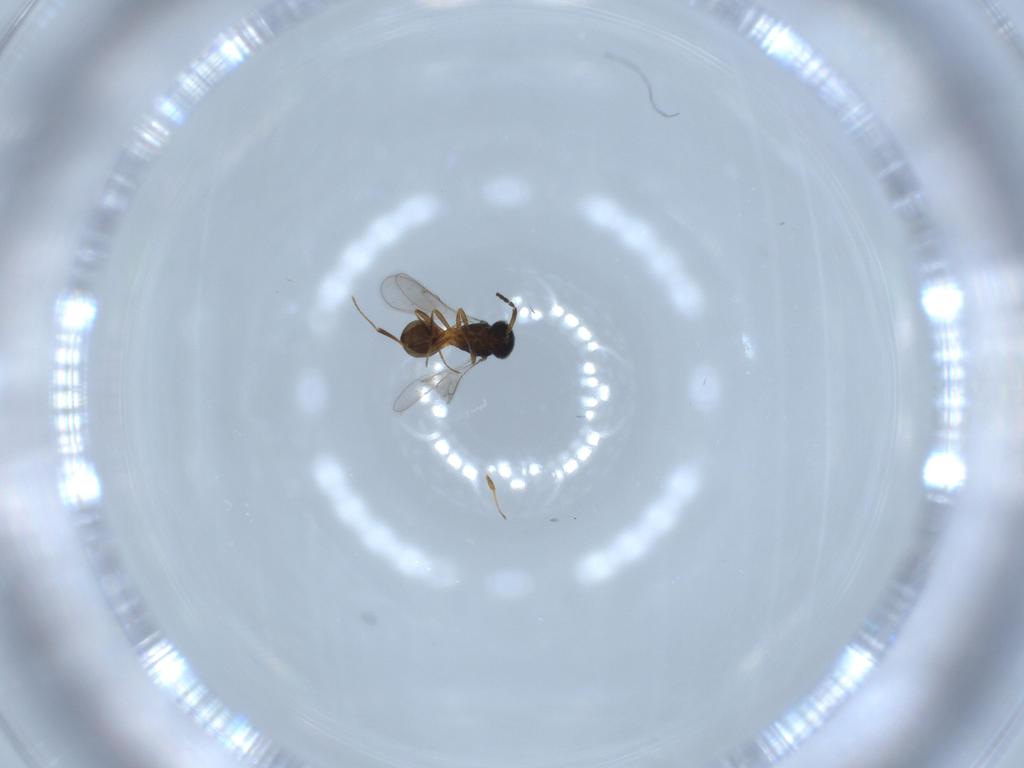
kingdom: Animalia
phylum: Arthropoda
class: Insecta
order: Hymenoptera
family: Scelionidae
